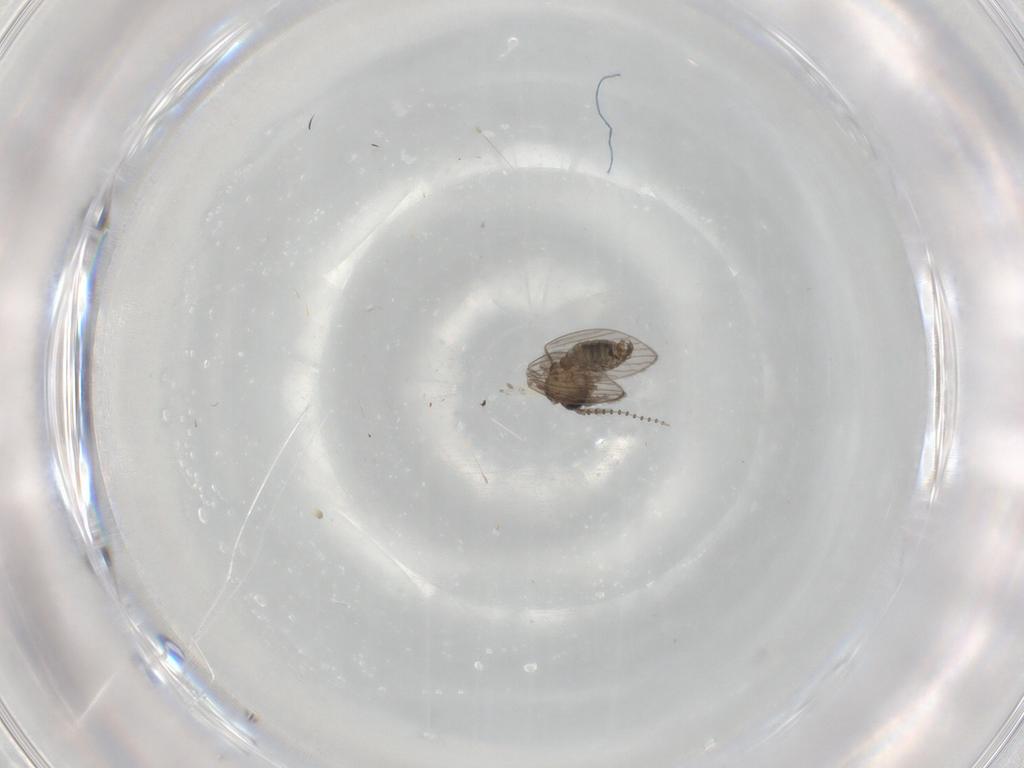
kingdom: Animalia
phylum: Arthropoda
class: Insecta
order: Diptera
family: Psychodidae
